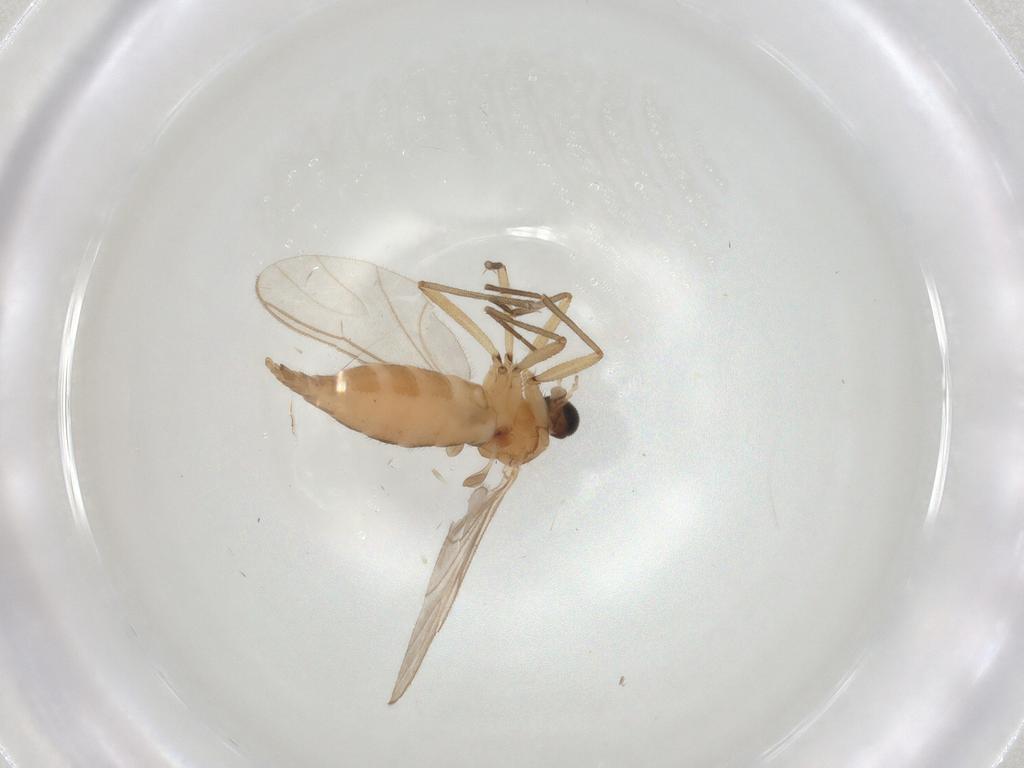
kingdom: Animalia
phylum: Arthropoda
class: Insecta
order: Diptera
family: Sciaridae
